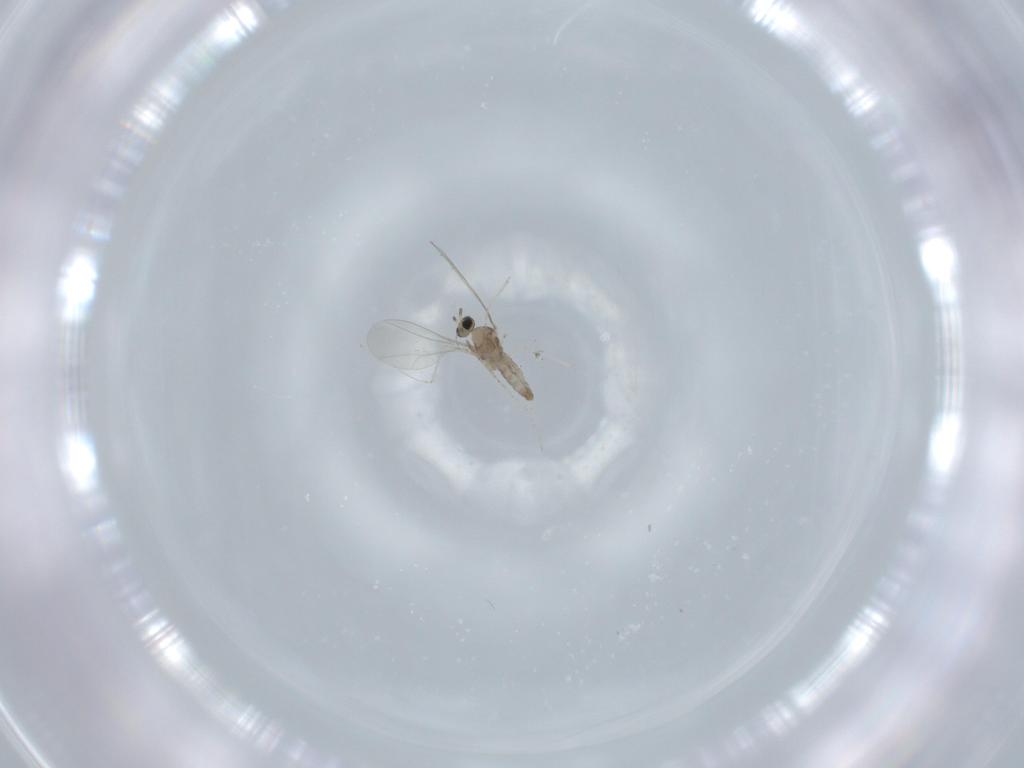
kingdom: Animalia
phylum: Arthropoda
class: Insecta
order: Diptera
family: Cecidomyiidae
